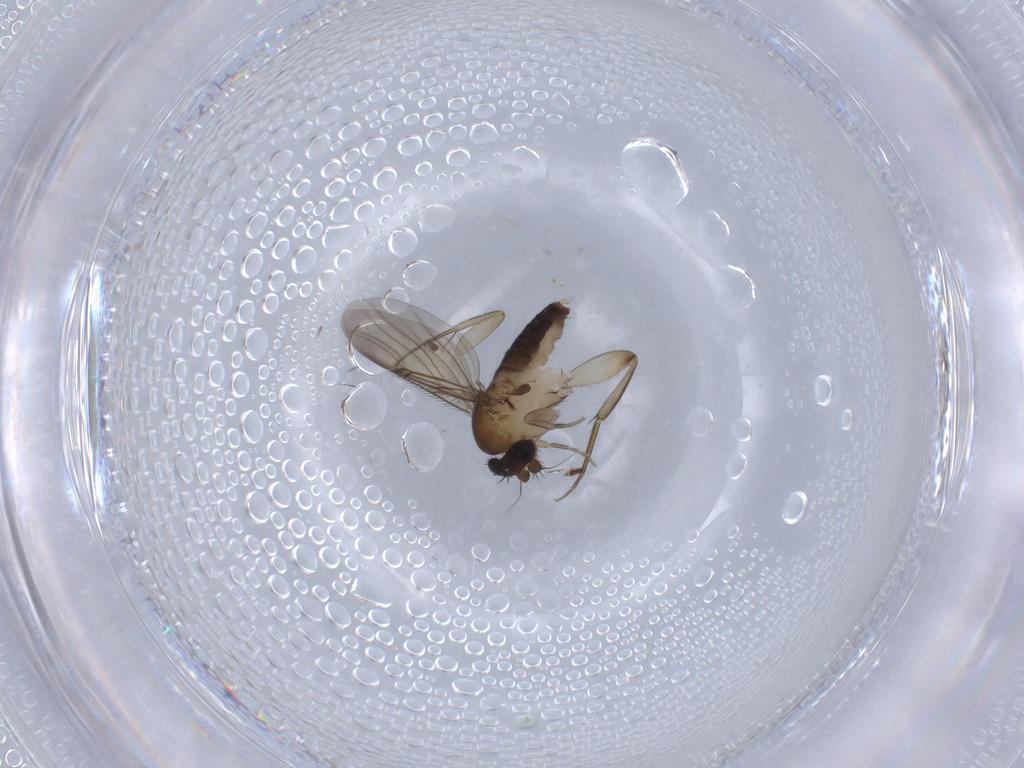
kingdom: Animalia
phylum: Arthropoda
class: Insecta
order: Diptera
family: Phoridae
